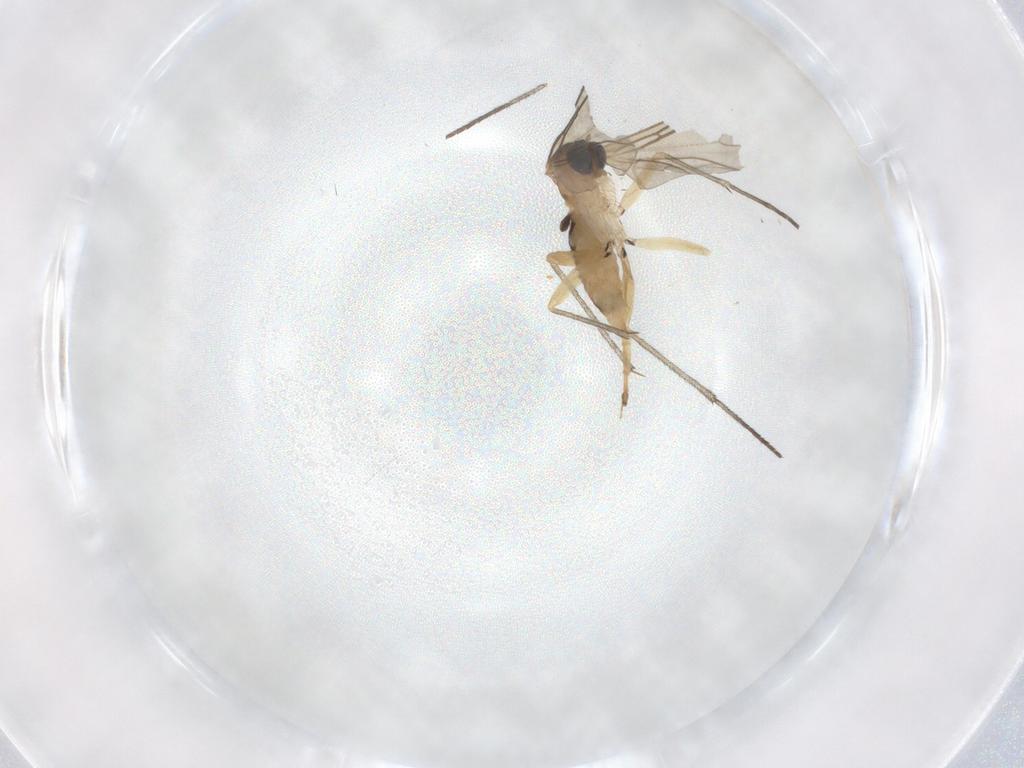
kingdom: Animalia
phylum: Arthropoda
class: Insecta
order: Diptera
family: Sciaridae
